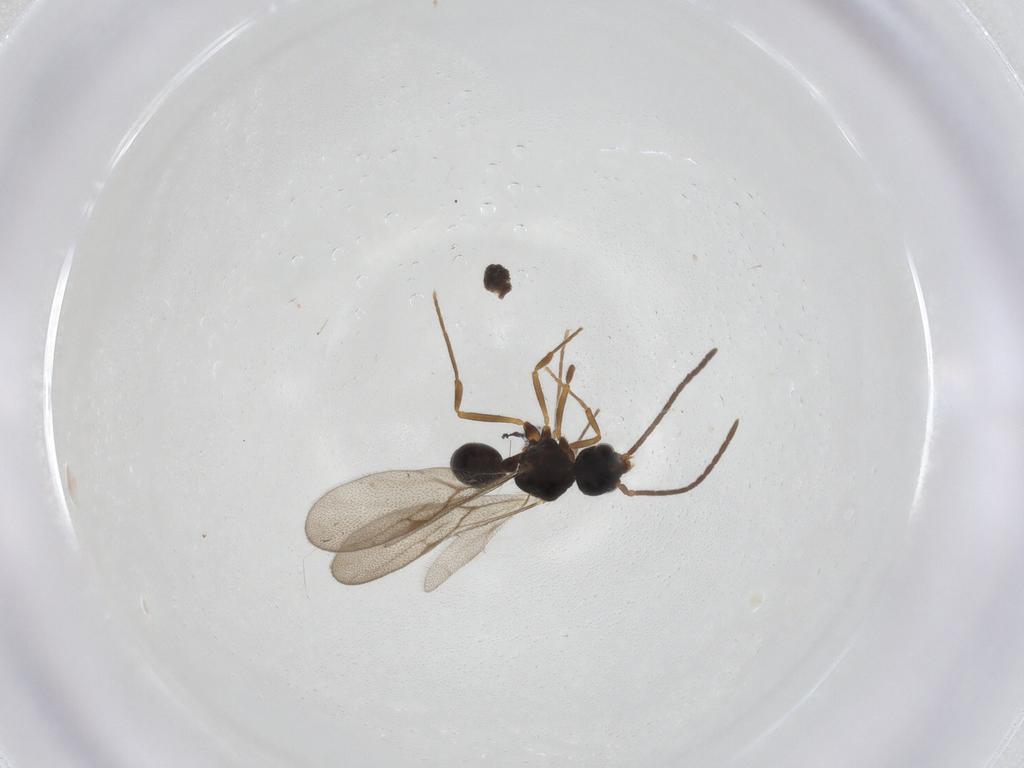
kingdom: Animalia
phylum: Arthropoda
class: Insecta
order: Hymenoptera
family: Formicidae
